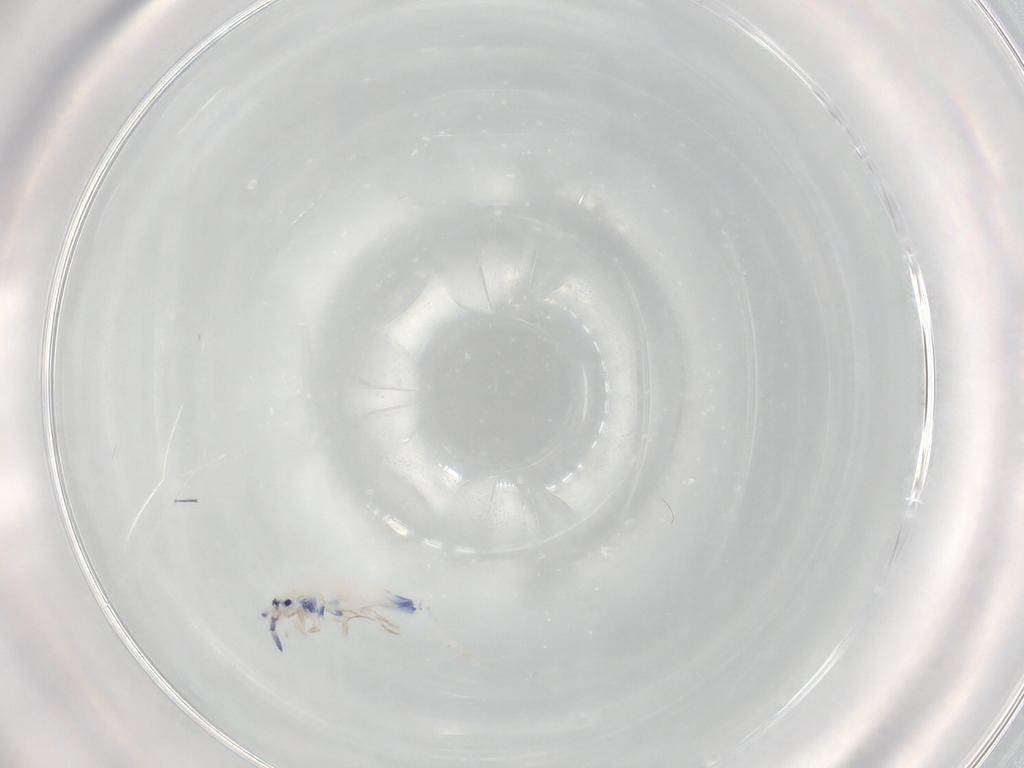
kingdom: Animalia
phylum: Arthropoda
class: Collembola
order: Entomobryomorpha
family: Entomobryidae
